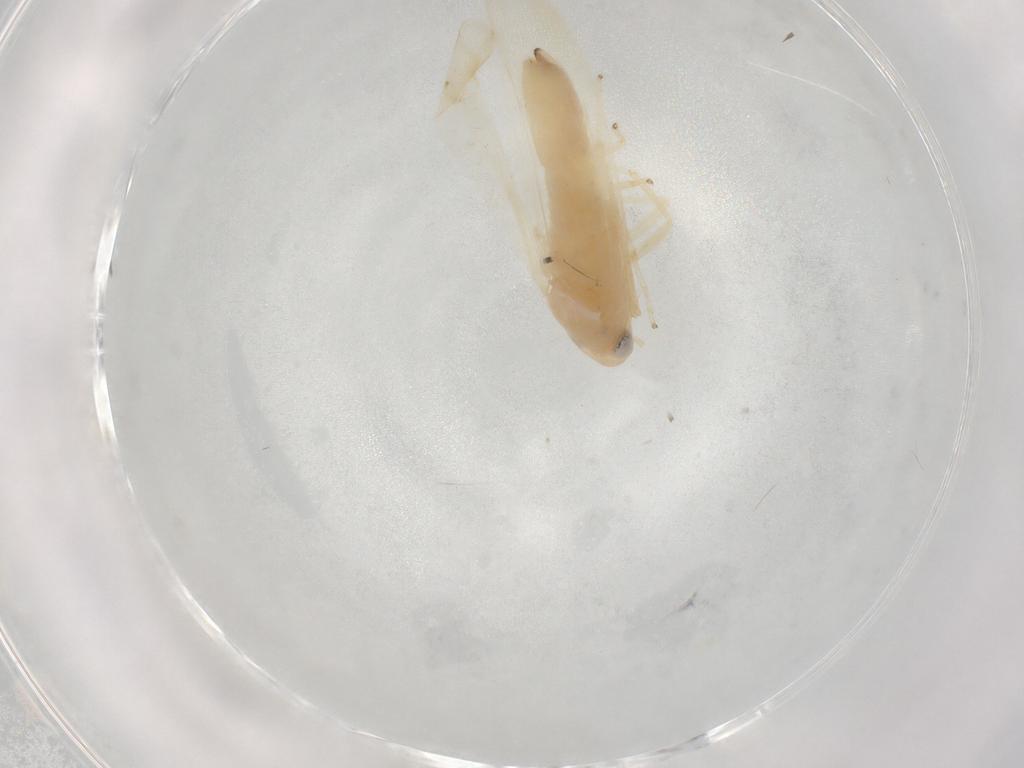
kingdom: Animalia
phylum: Arthropoda
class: Insecta
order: Hemiptera
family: Cicadellidae
